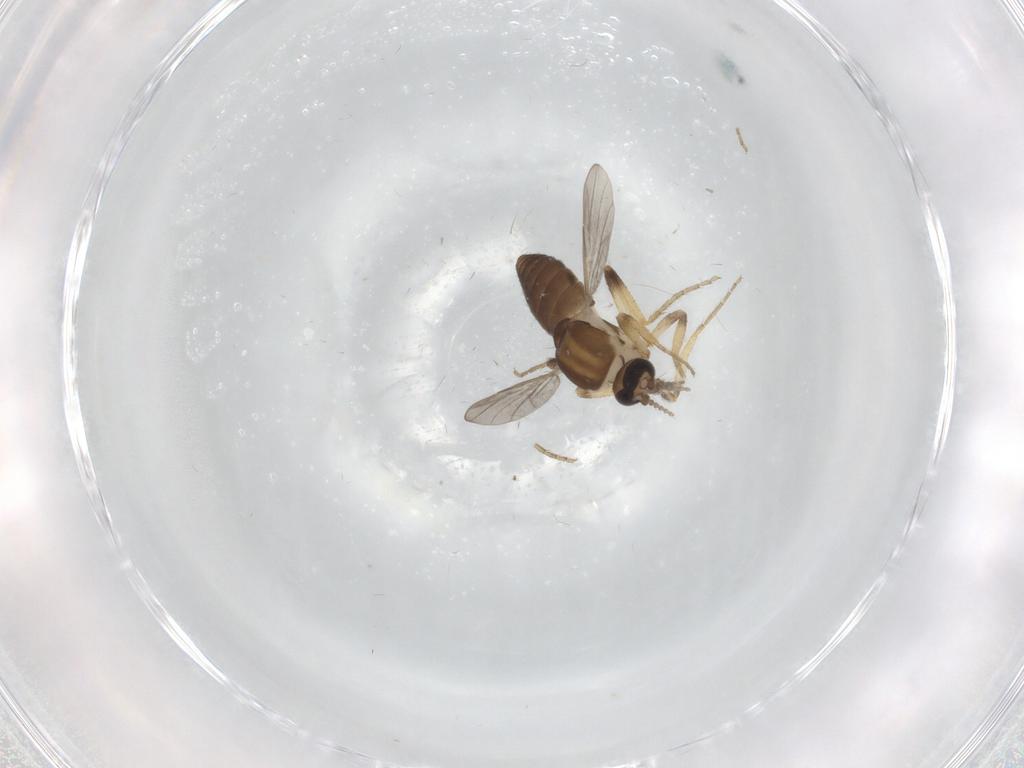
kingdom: Animalia
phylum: Arthropoda
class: Insecta
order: Diptera
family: Ceratopogonidae
